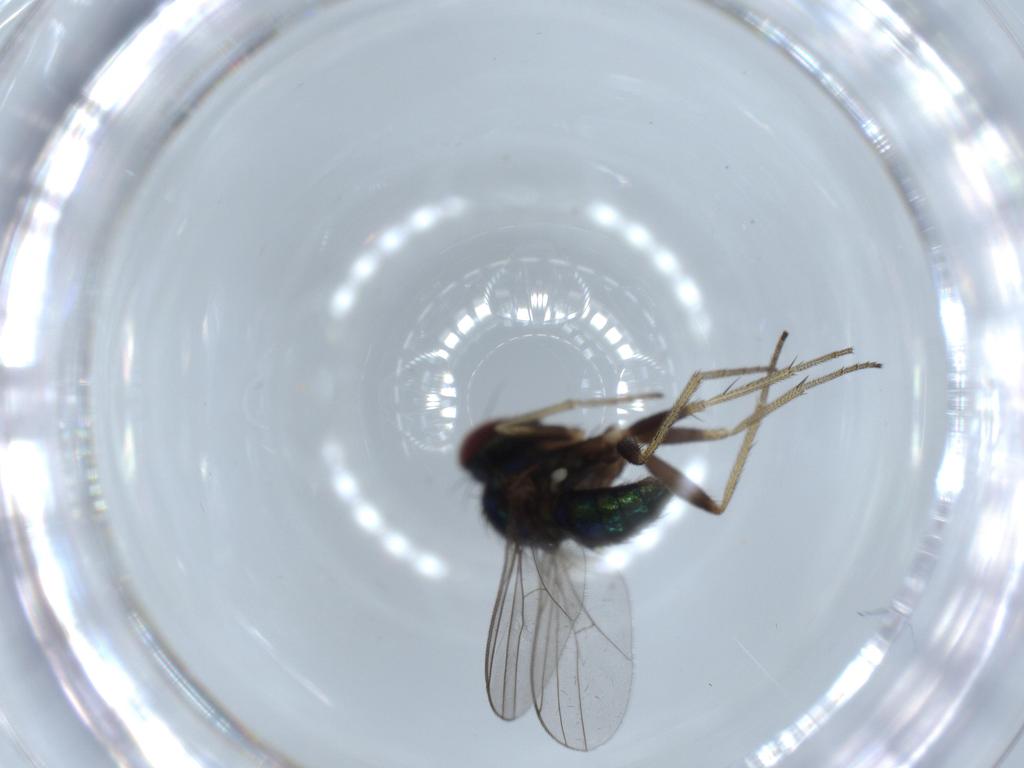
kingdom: Animalia
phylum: Arthropoda
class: Insecta
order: Diptera
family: Dolichopodidae
